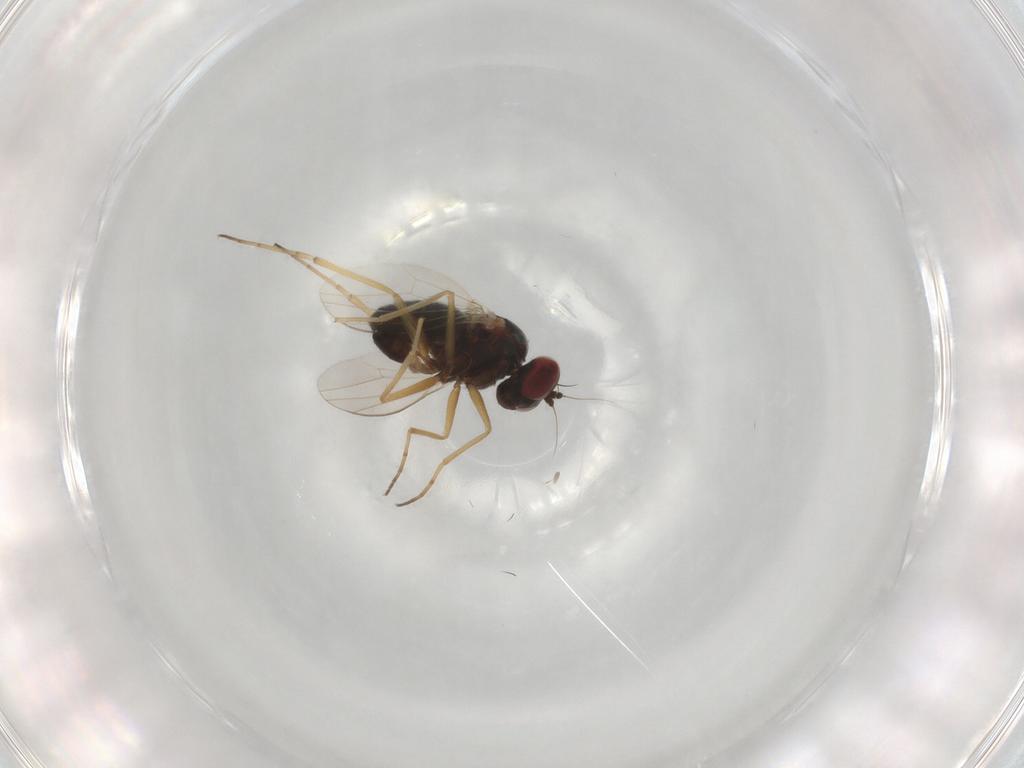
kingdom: Animalia
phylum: Arthropoda
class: Insecta
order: Diptera
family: Dolichopodidae
